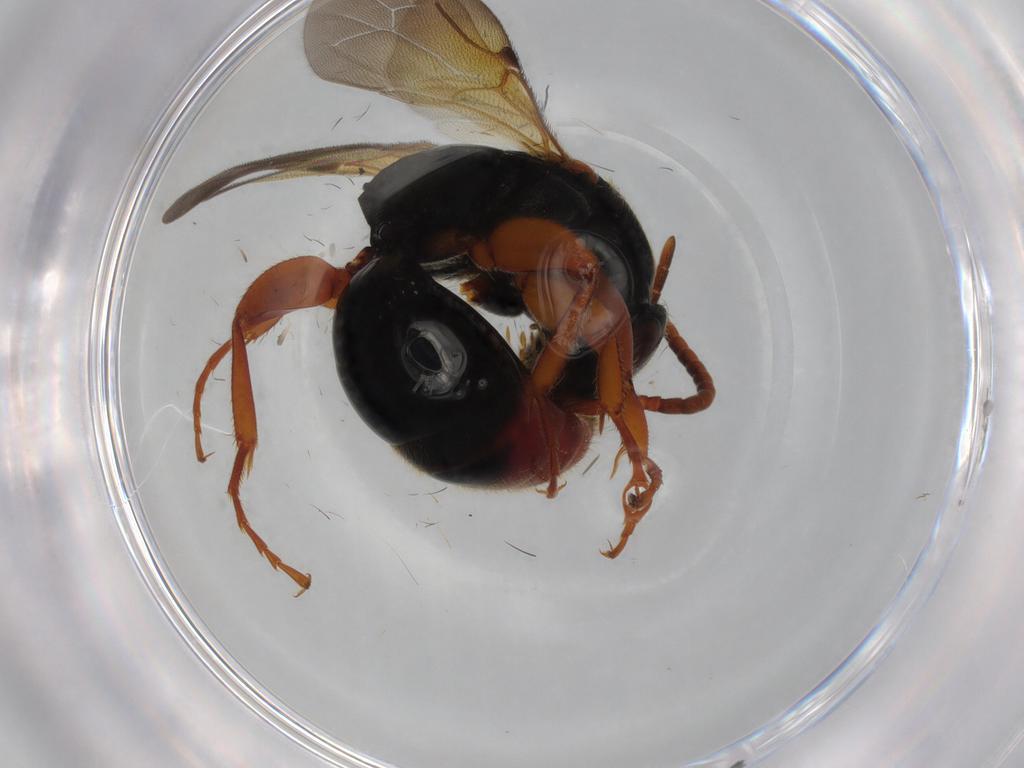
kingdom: Animalia
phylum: Arthropoda
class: Insecta
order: Hymenoptera
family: Bethylidae
